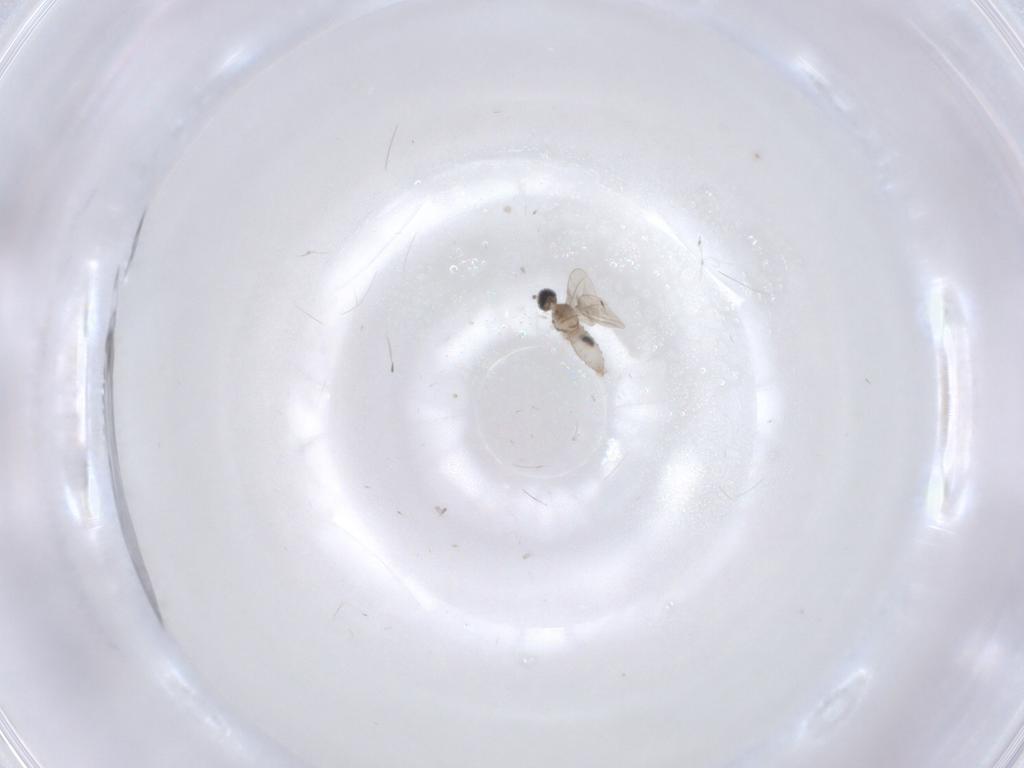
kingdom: Animalia
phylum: Arthropoda
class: Insecta
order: Diptera
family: Cecidomyiidae
